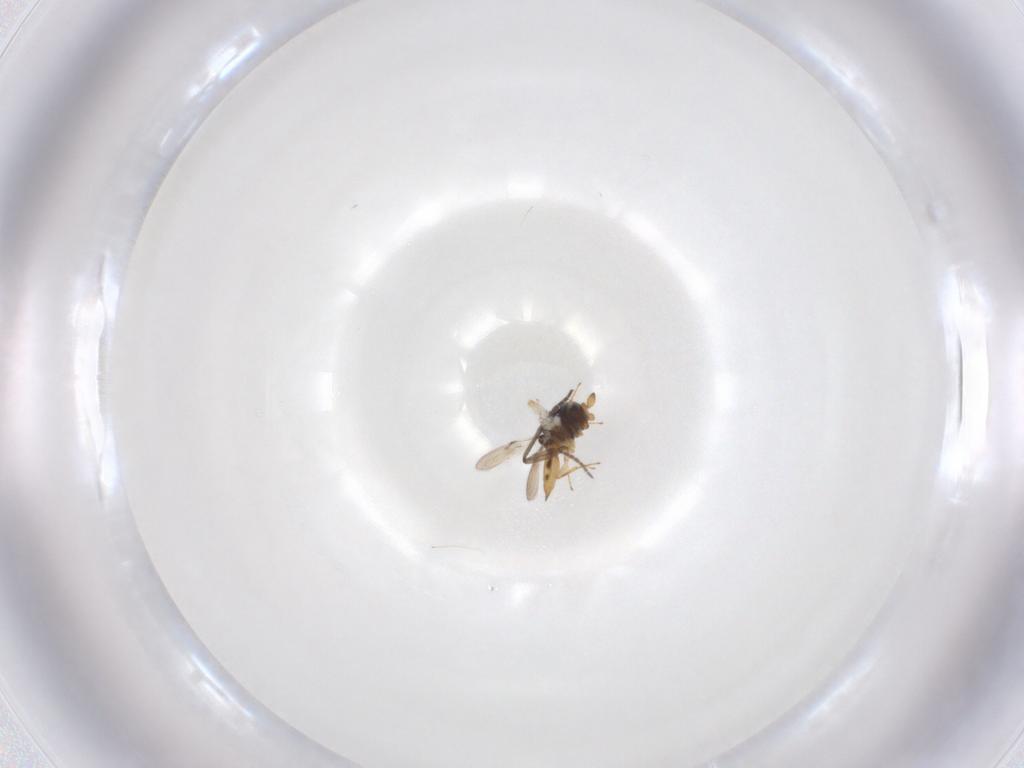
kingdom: Animalia
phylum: Arthropoda
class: Insecta
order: Hymenoptera
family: Scelionidae
